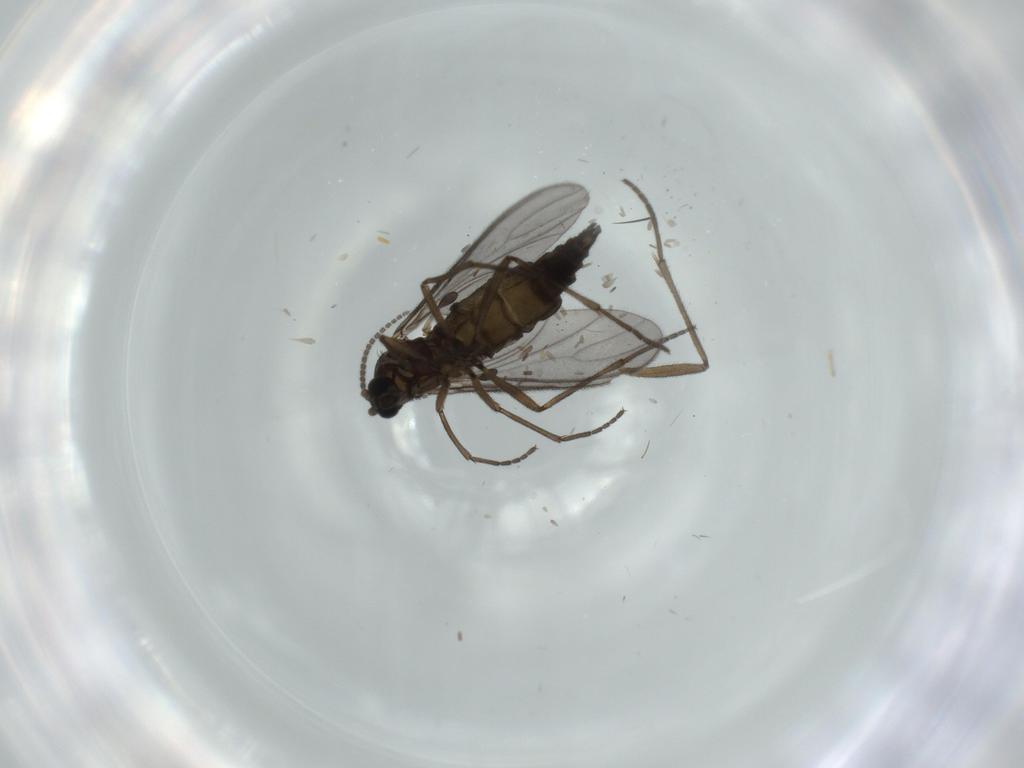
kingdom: Animalia
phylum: Arthropoda
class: Insecta
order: Diptera
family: Sciaridae
